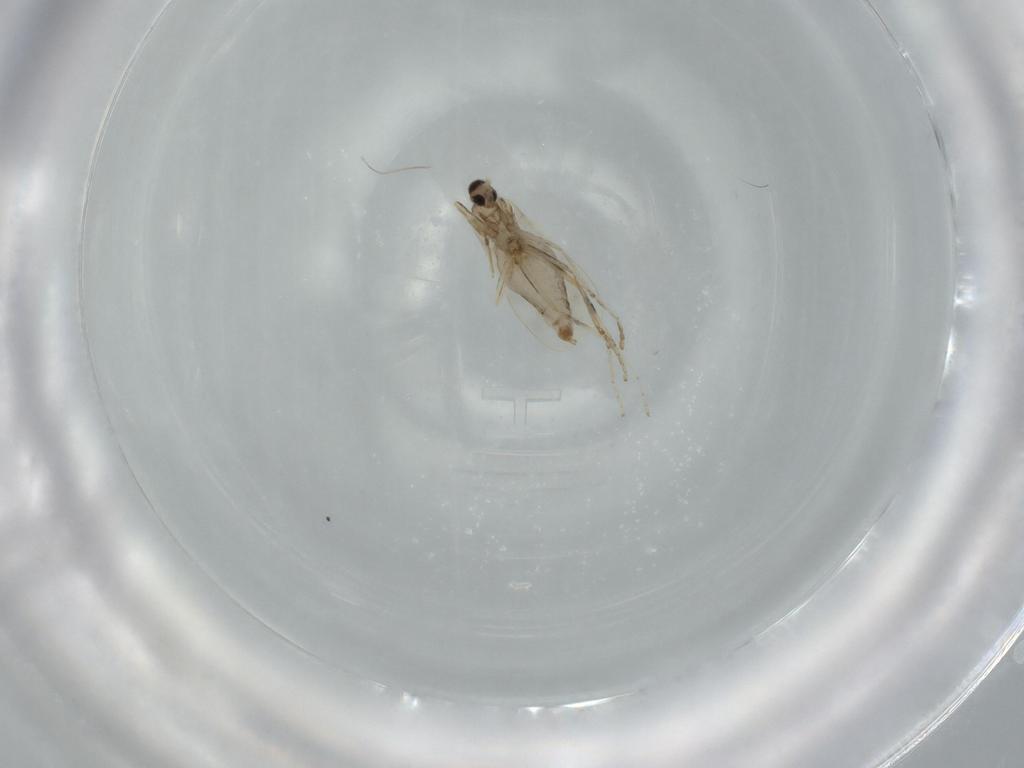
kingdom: Animalia
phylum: Arthropoda
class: Insecta
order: Diptera
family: Cecidomyiidae
